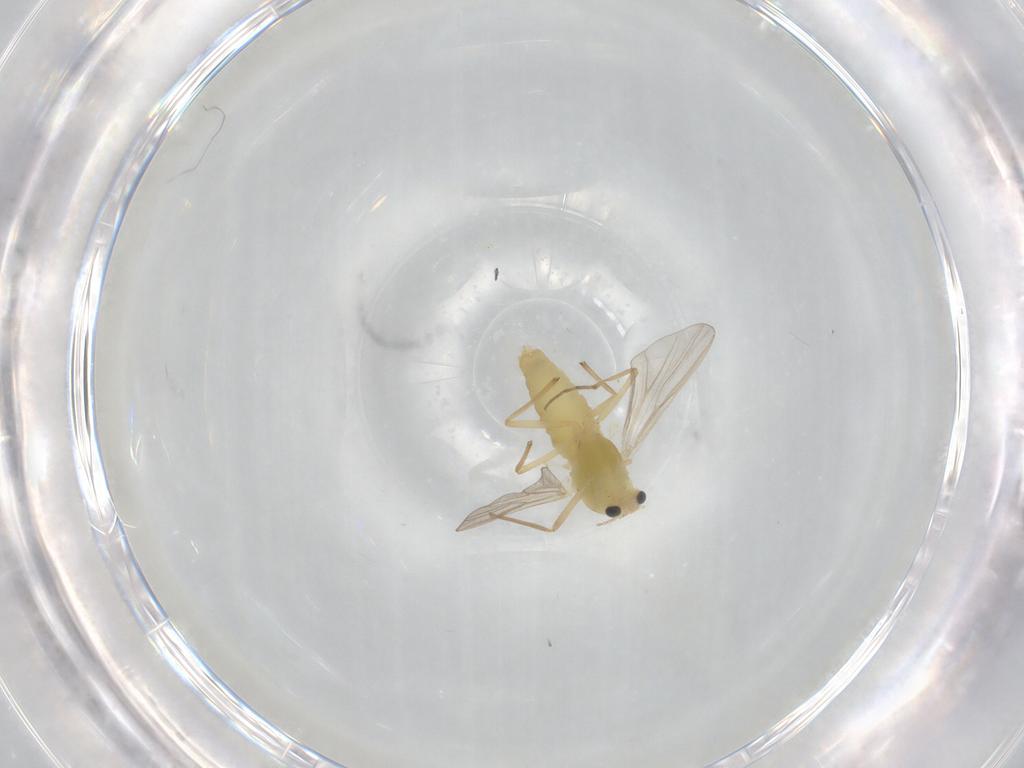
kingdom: Animalia
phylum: Arthropoda
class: Insecta
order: Diptera
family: Chironomidae
